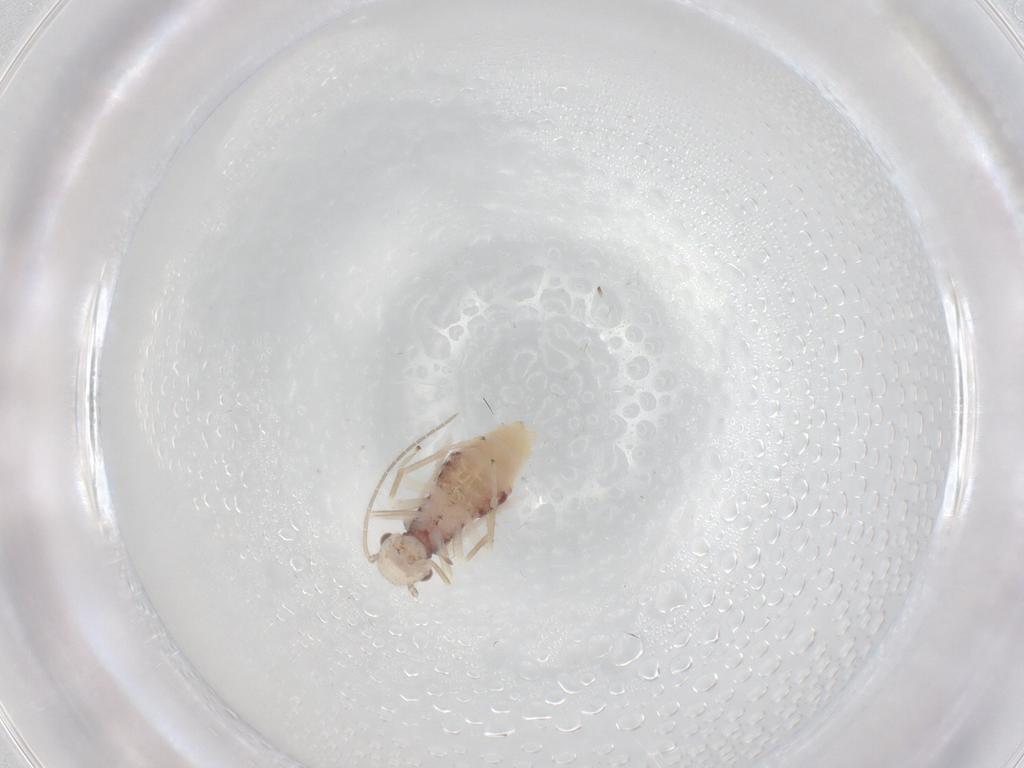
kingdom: Animalia
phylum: Arthropoda
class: Insecta
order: Psocodea
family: Caeciliusidae
